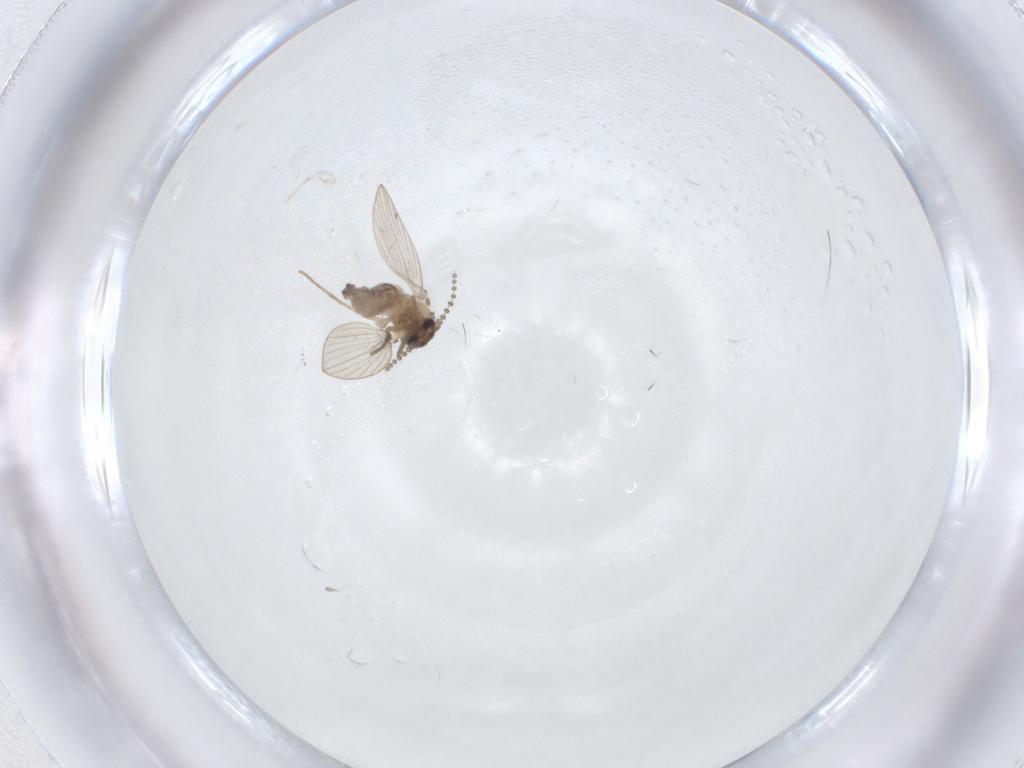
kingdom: Animalia
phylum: Arthropoda
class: Insecta
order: Diptera
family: Psychodidae
